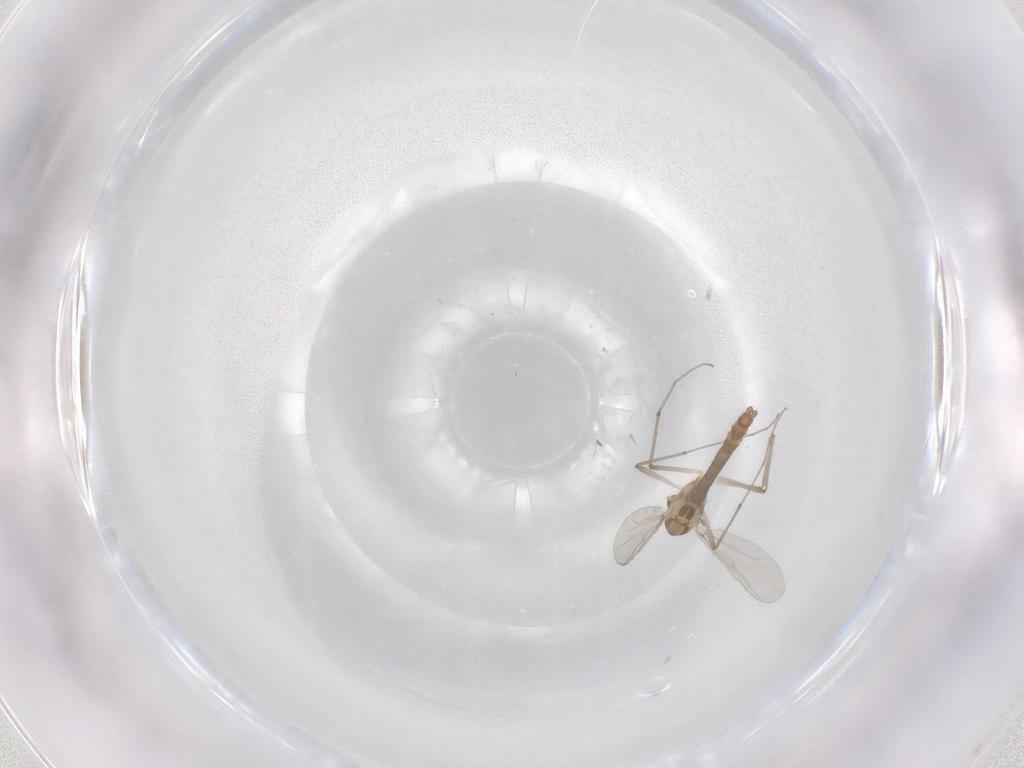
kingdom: Animalia
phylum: Arthropoda
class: Insecta
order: Diptera
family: Chironomidae
